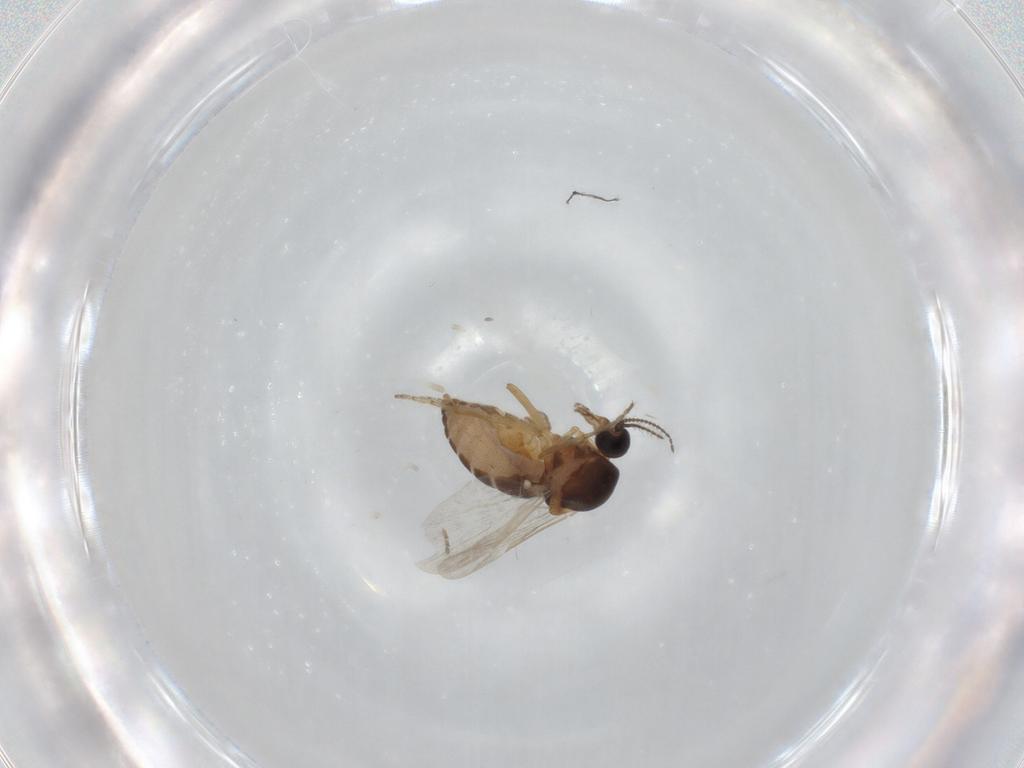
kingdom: Animalia
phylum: Arthropoda
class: Insecta
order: Diptera
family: Ceratopogonidae
